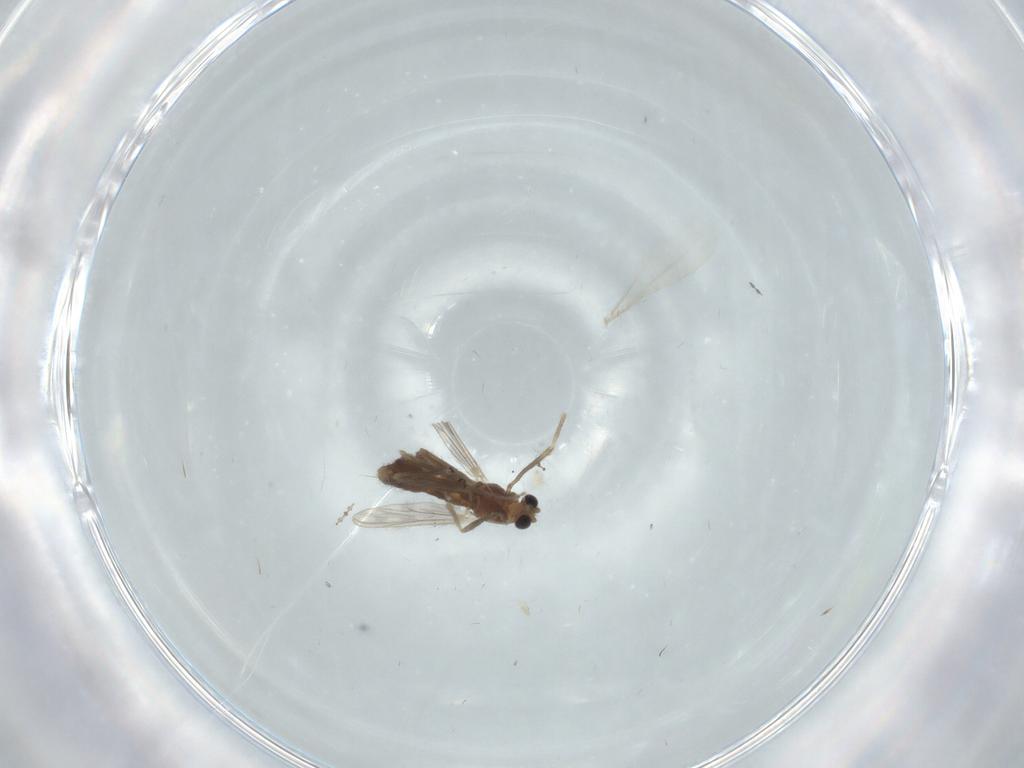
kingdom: Animalia
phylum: Arthropoda
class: Insecta
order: Diptera
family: Chironomidae
